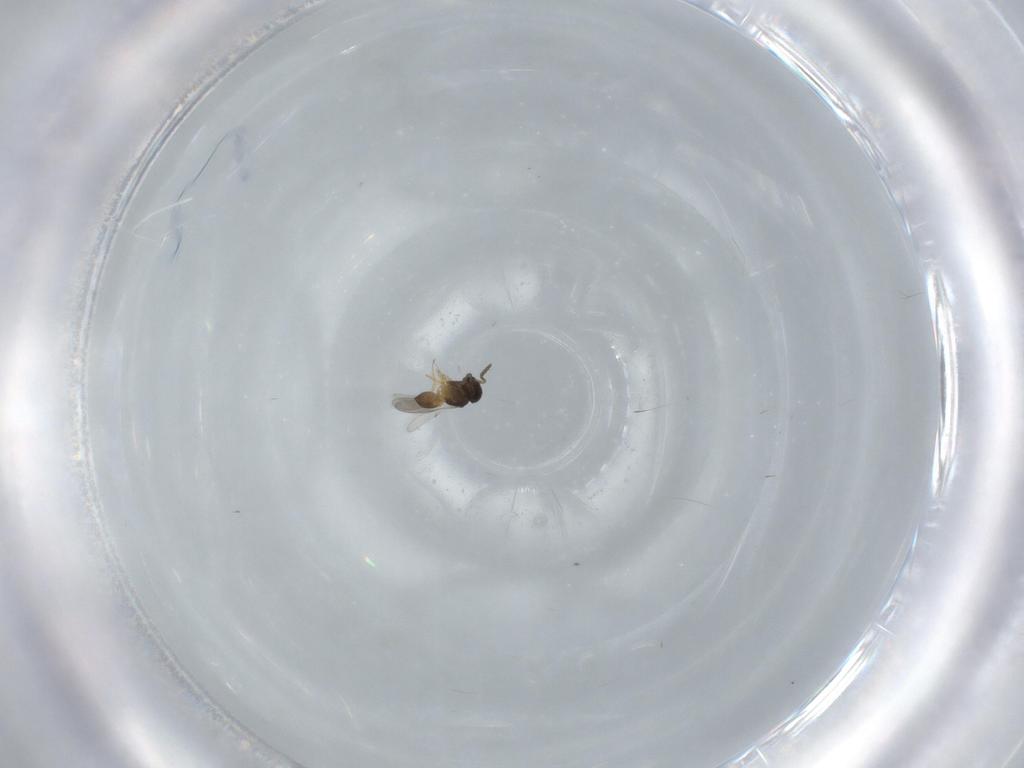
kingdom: Animalia
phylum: Arthropoda
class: Insecta
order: Hymenoptera
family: Scelionidae
